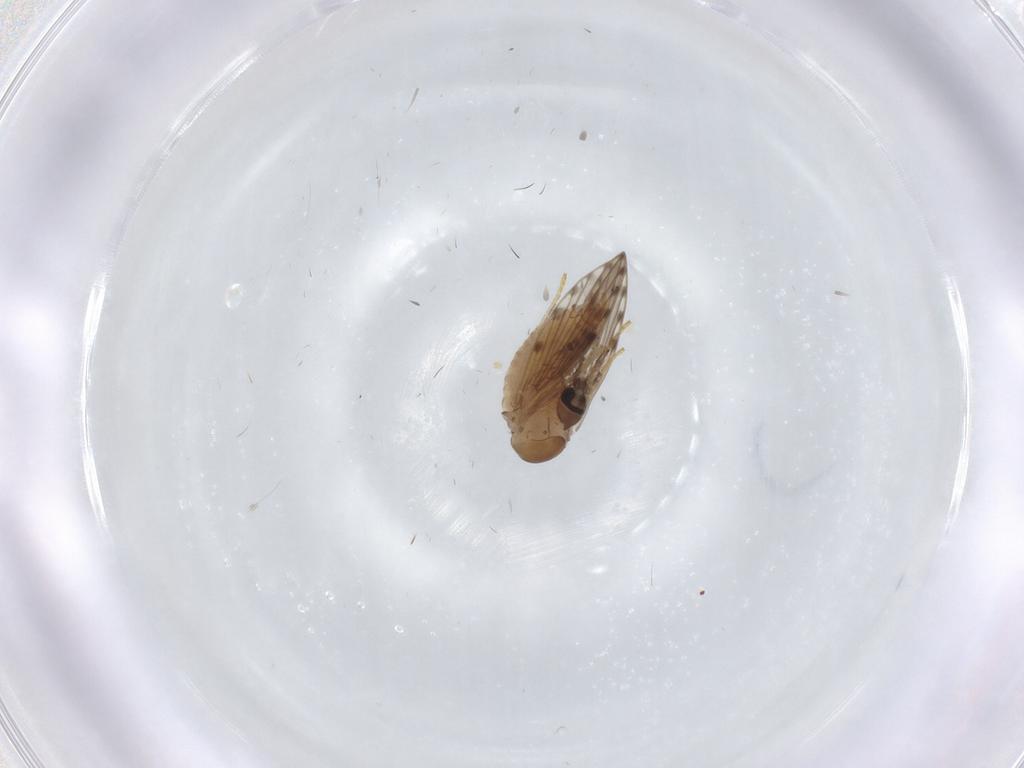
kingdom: Animalia
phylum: Arthropoda
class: Insecta
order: Diptera
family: Psychodidae
